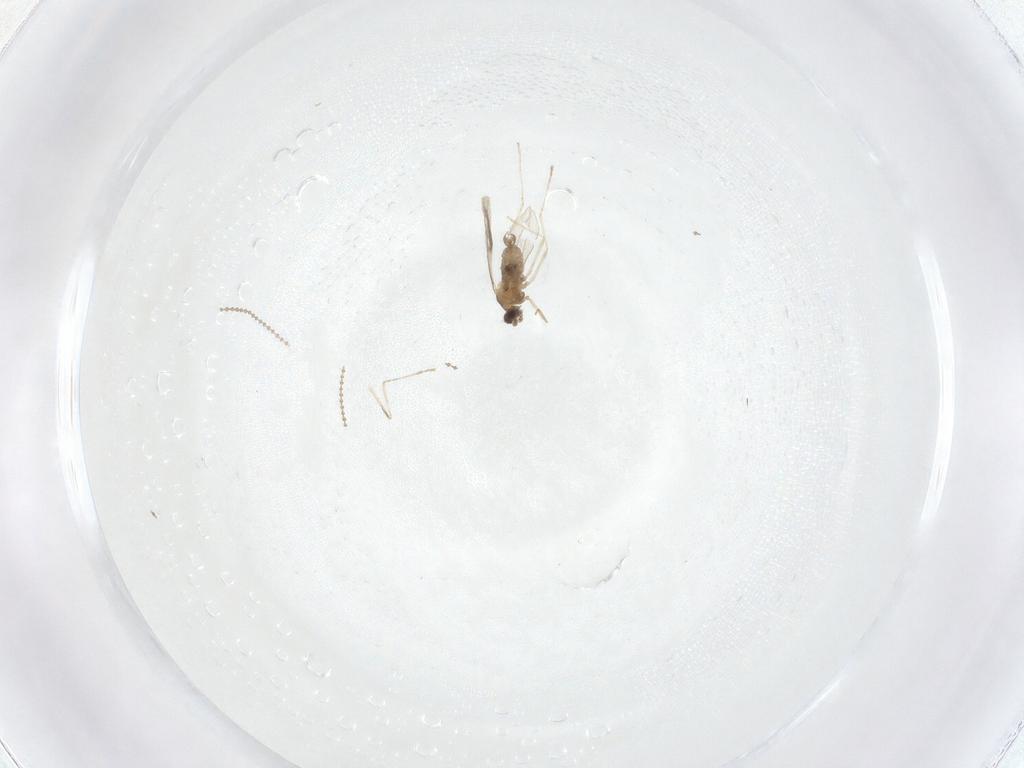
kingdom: Animalia
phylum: Arthropoda
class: Insecta
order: Diptera
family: Cecidomyiidae
